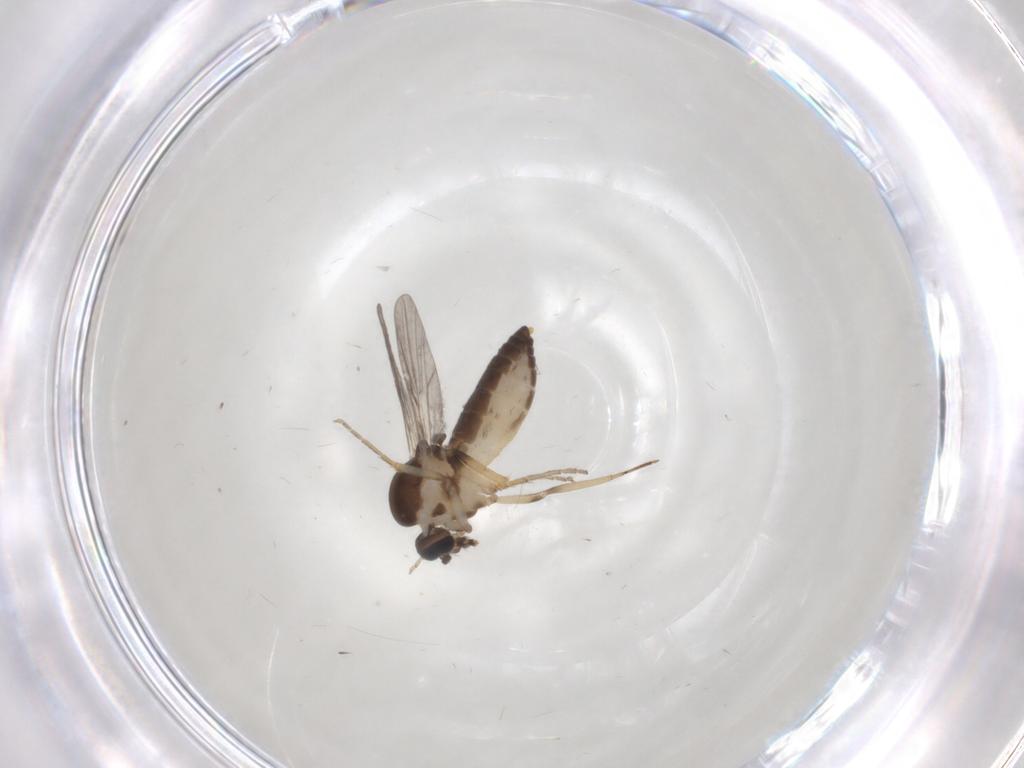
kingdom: Animalia
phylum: Arthropoda
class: Insecta
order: Diptera
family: Ceratopogonidae
